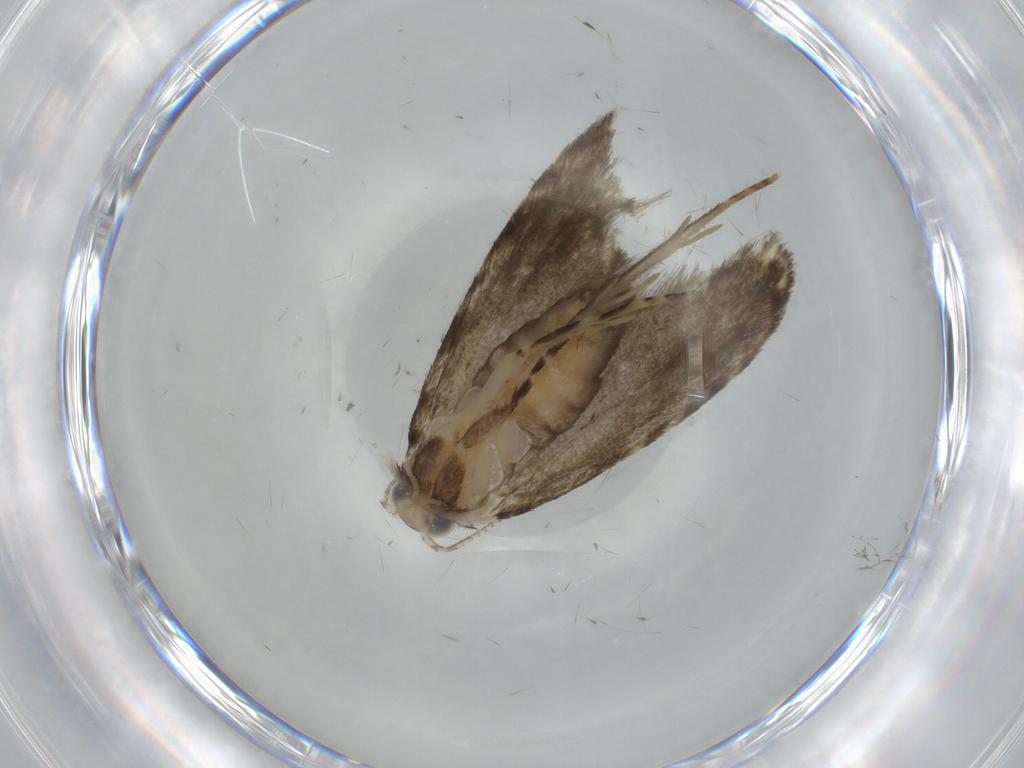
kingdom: Animalia
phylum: Arthropoda
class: Insecta
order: Lepidoptera
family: Tineidae
